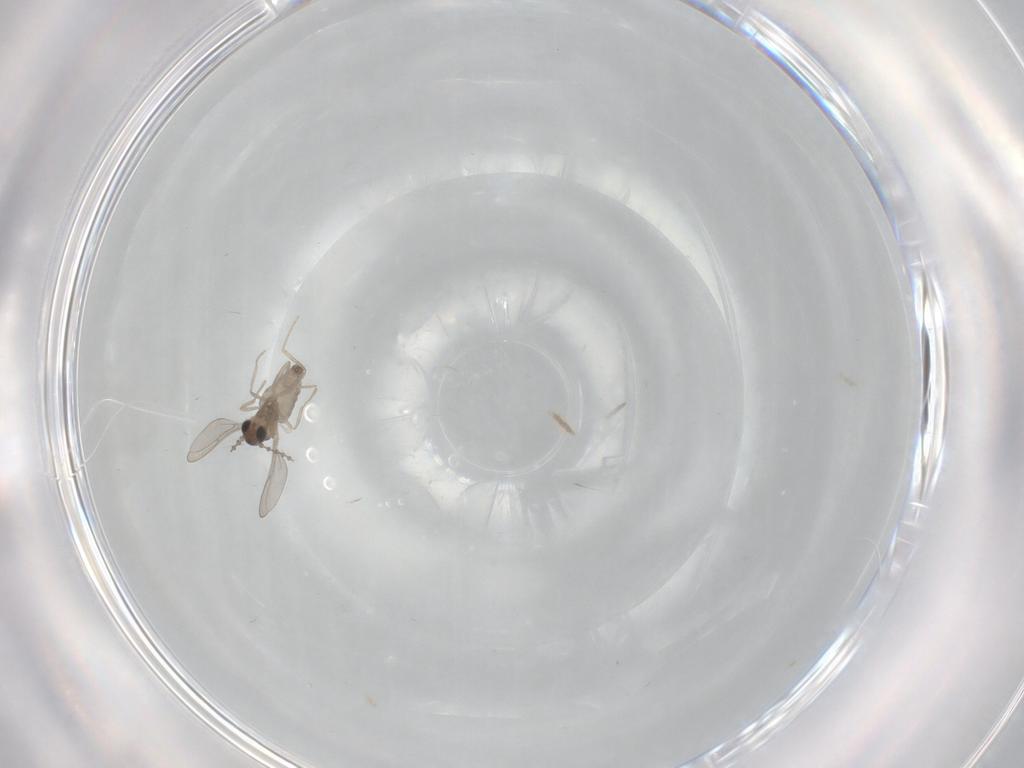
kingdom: Animalia
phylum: Arthropoda
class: Insecta
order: Diptera
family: Cecidomyiidae
